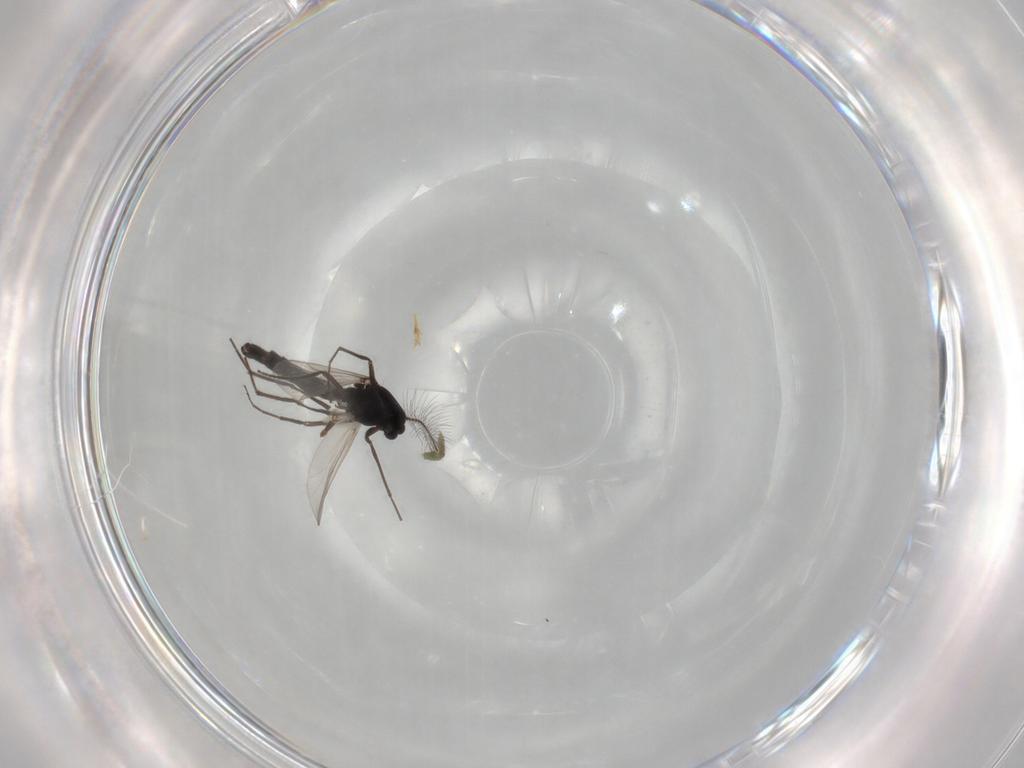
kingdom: Animalia
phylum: Arthropoda
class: Insecta
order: Diptera
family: Chironomidae
